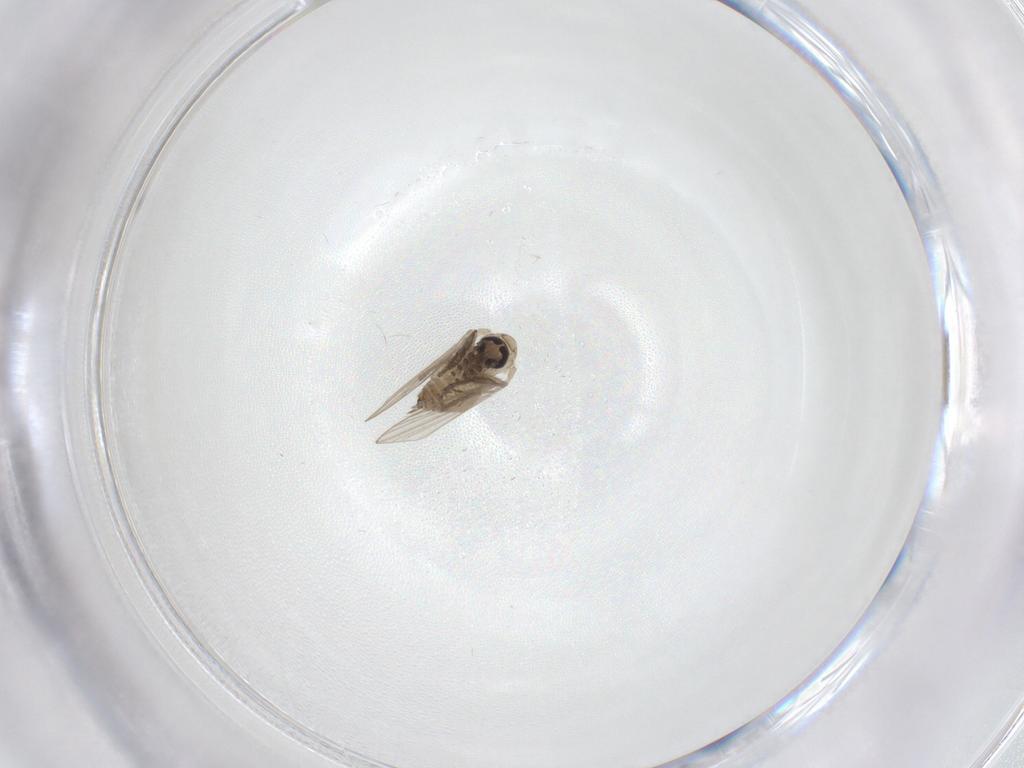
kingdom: Animalia
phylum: Arthropoda
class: Insecta
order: Diptera
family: Psychodidae
